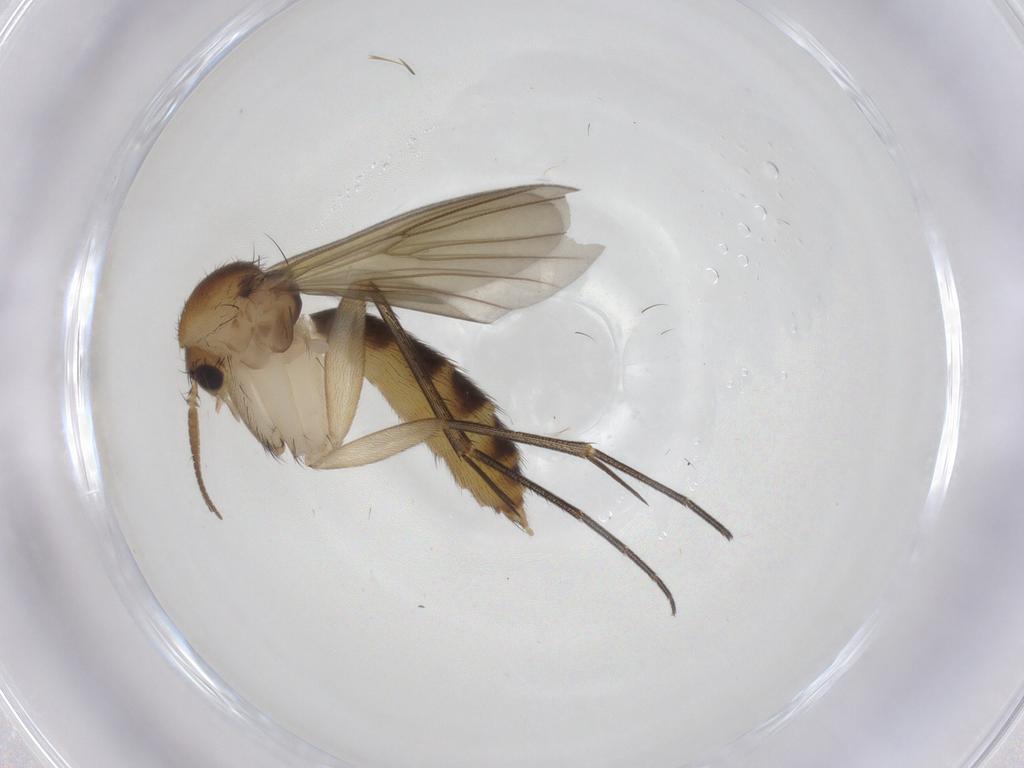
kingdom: Animalia
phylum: Arthropoda
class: Insecta
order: Diptera
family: Mycetophilidae
